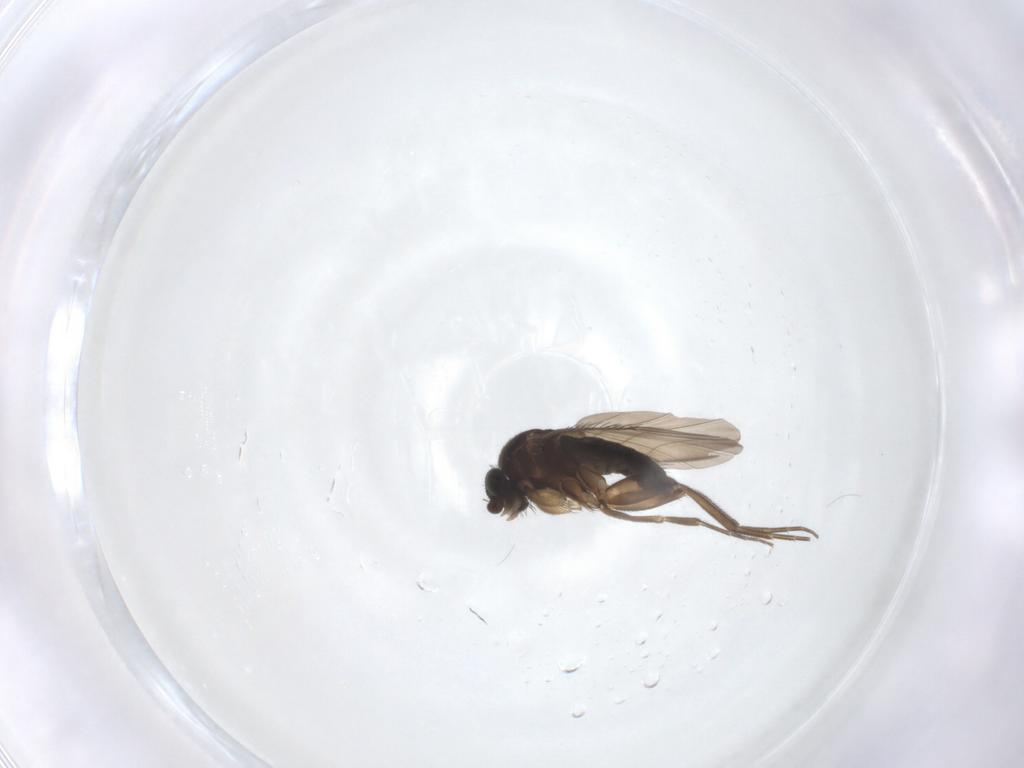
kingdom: Animalia
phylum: Arthropoda
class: Insecta
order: Diptera
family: Phoridae
